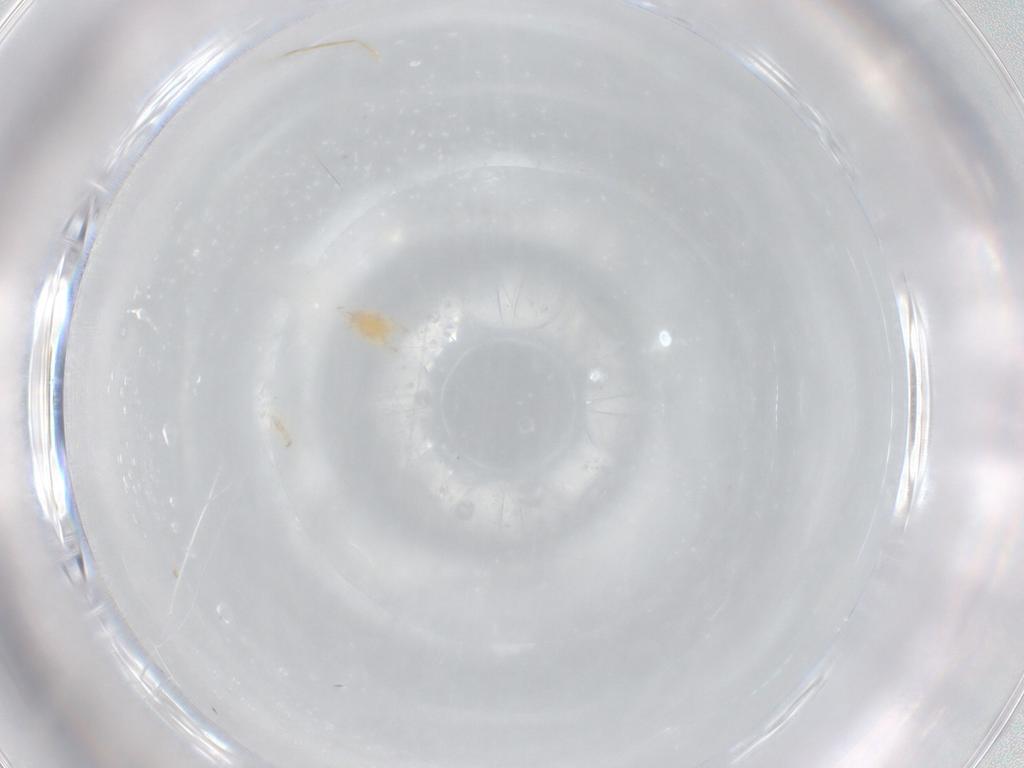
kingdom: Animalia
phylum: Arthropoda
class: Arachnida
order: Trombidiformes
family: Cunaxidae
